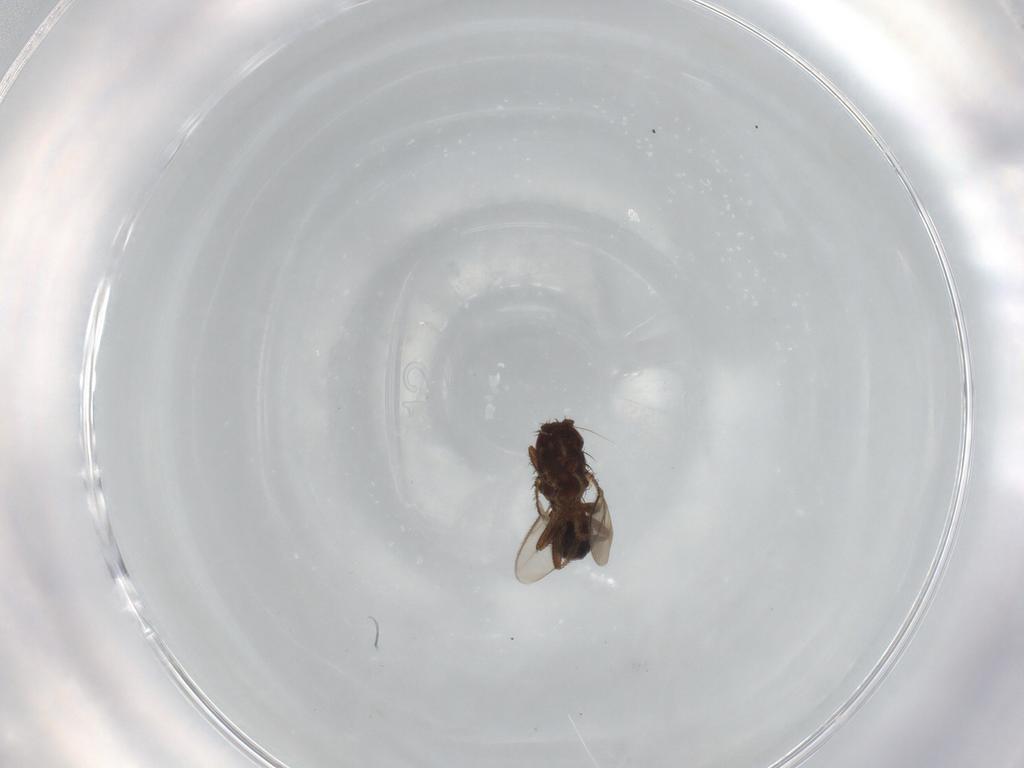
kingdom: Animalia
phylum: Arthropoda
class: Insecta
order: Diptera
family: Sphaeroceridae
